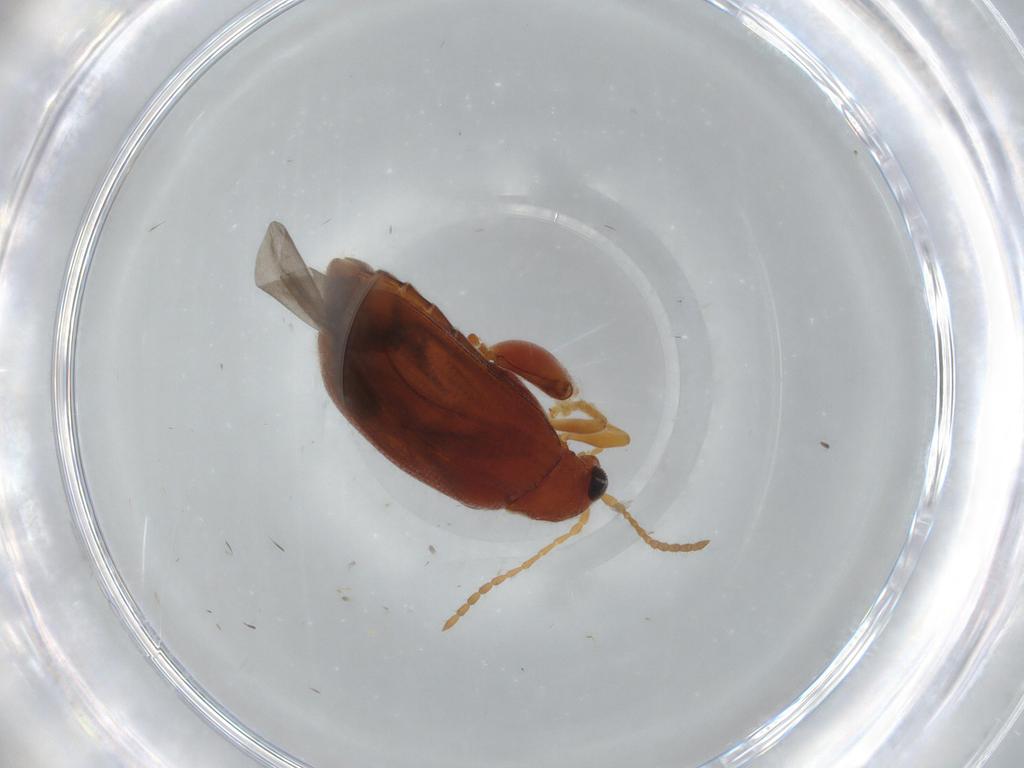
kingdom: Animalia
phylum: Arthropoda
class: Insecta
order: Coleoptera
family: Chrysomelidae
